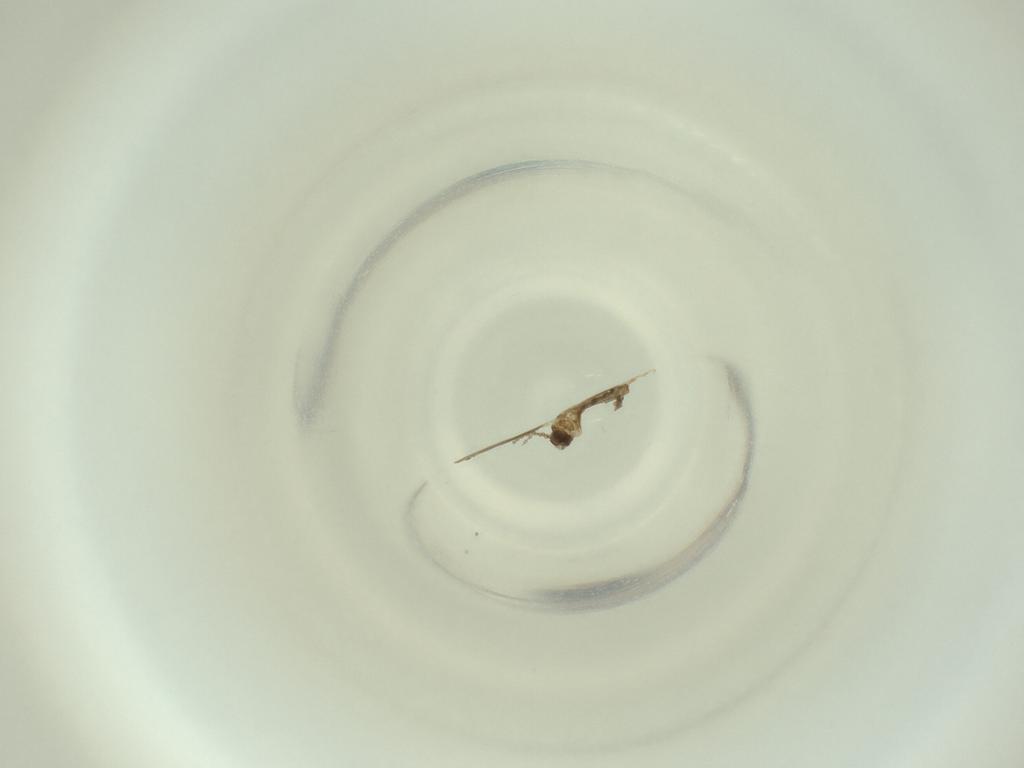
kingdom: Animalia
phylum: Arthropoda
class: Insecta
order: Diptera
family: Cecidomyiidae
